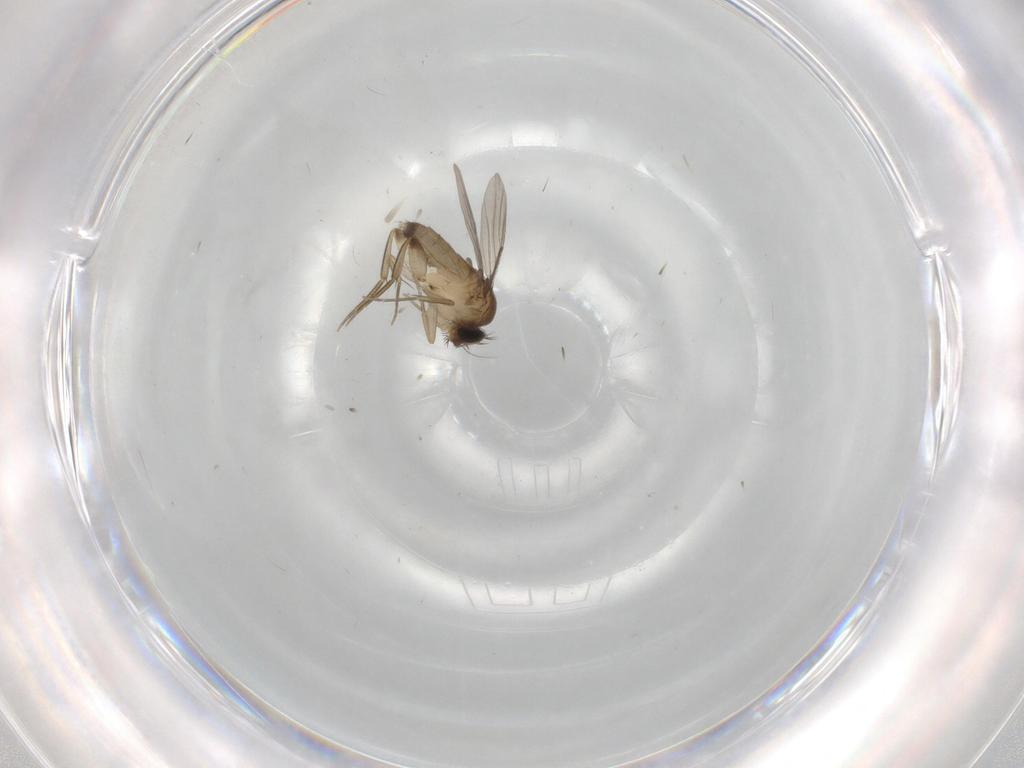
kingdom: Animalia
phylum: Arthropoda
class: Insecta
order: Diptera
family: Phoridae
